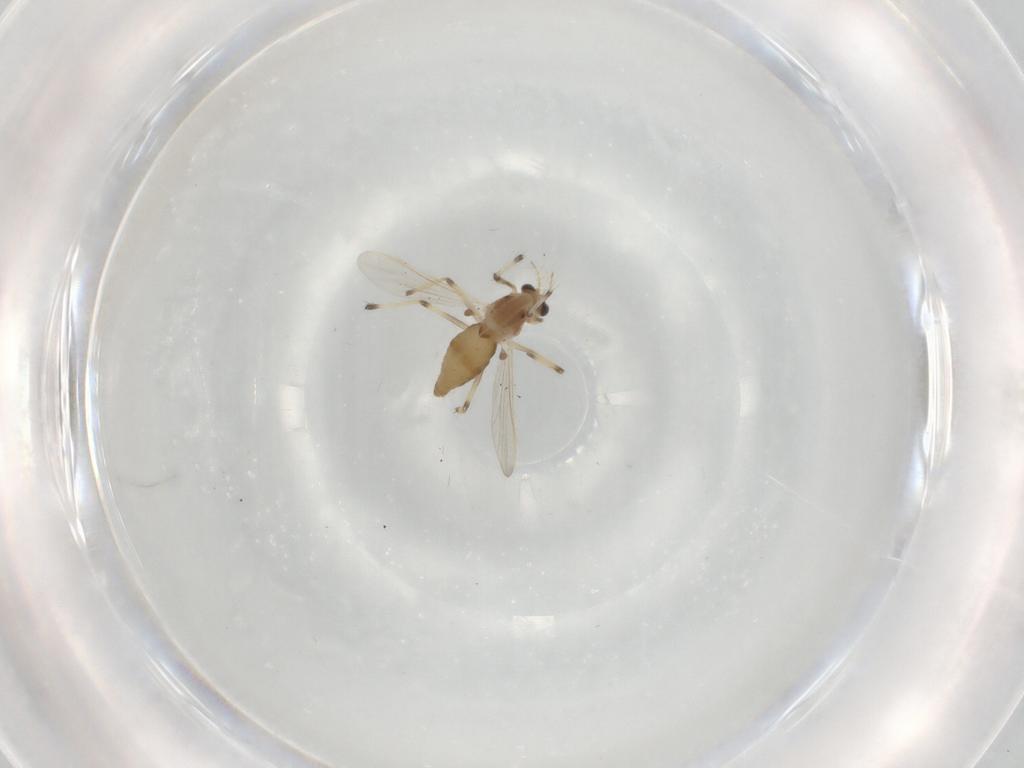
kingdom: Animalia
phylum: Arthropoda
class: Insecta
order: Diptera
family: Chironomidae
